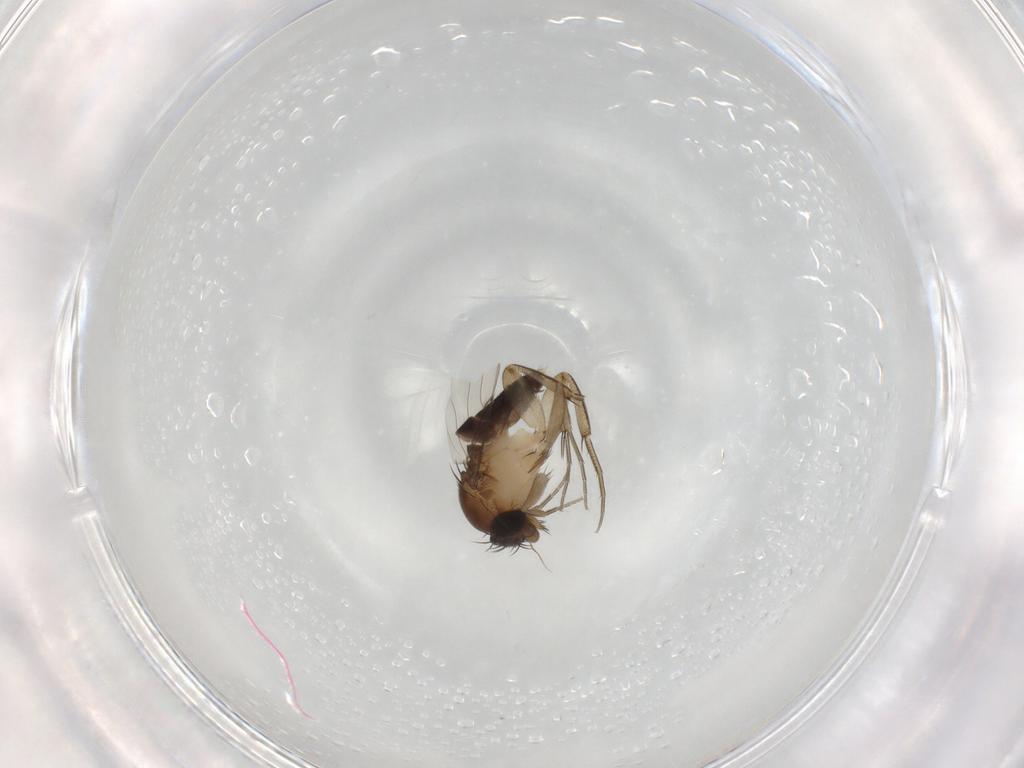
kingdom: Animalia
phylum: Arthropoda
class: Insecta
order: Diptera
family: Phoridae
